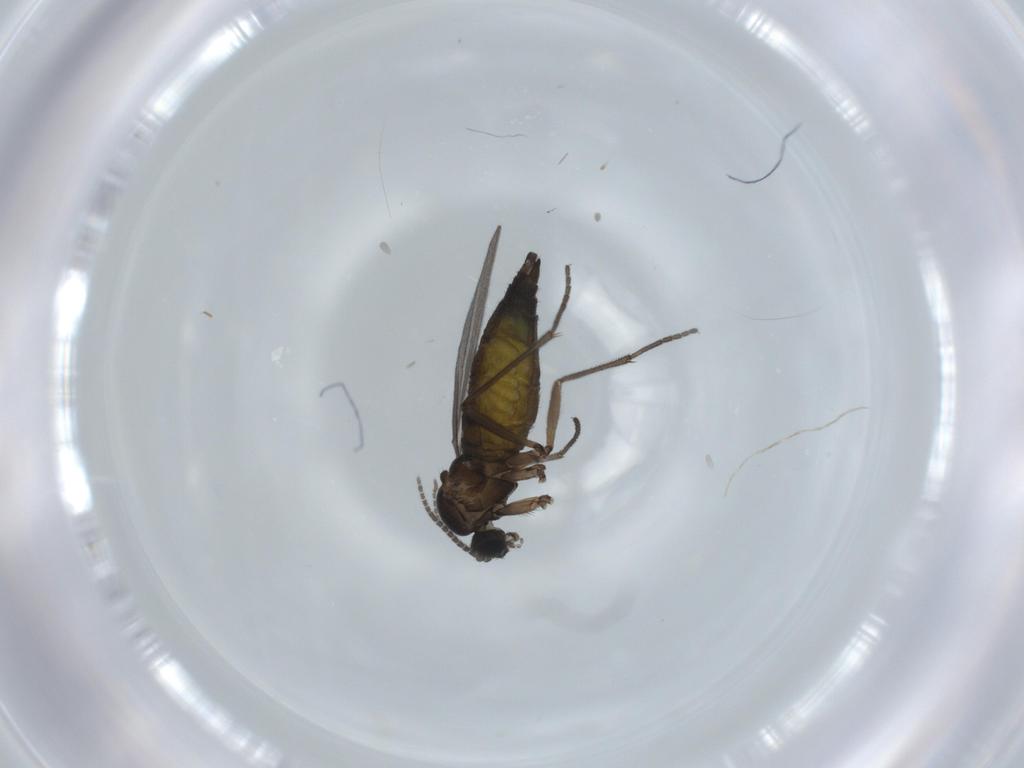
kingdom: Animalia
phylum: Arthropoda
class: Insecta
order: Diptera
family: Sciaridae
